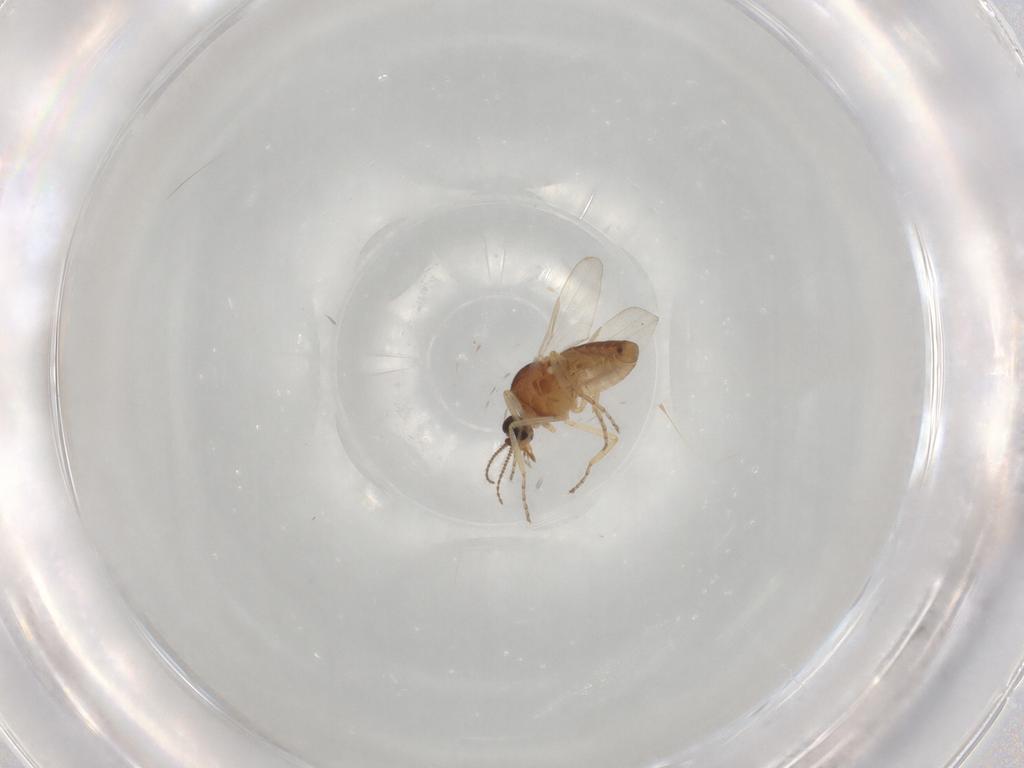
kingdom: Animalia
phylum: Arthropoda
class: Insecta
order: Diptera
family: Ceratopogonidae
